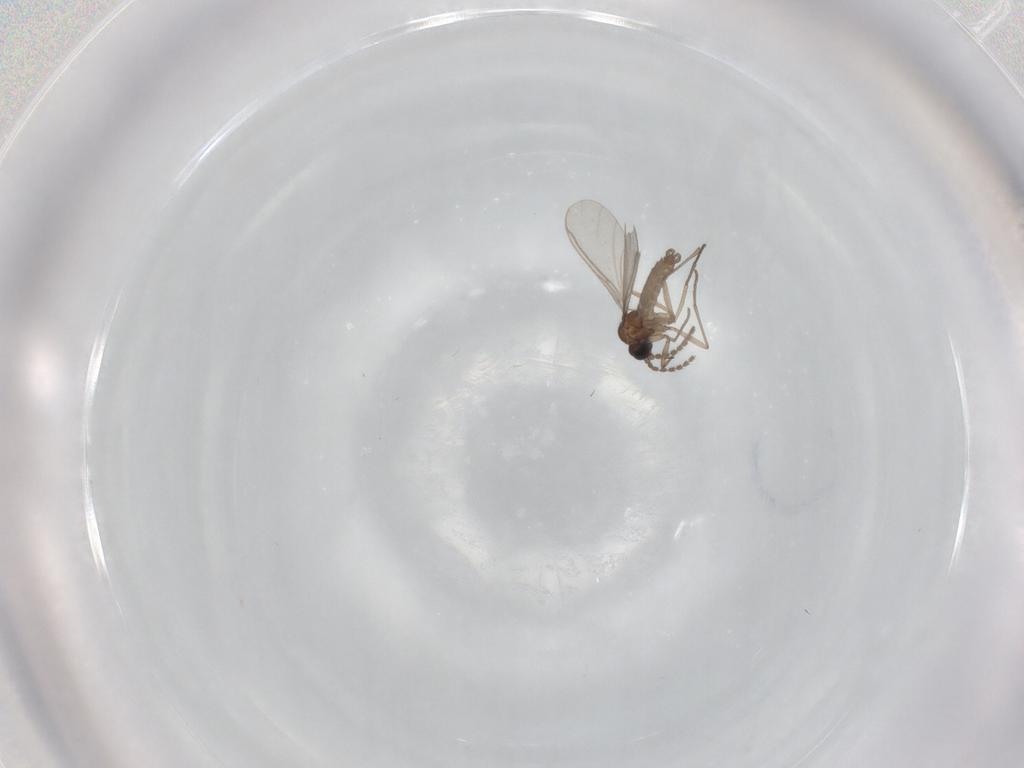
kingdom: Animalia
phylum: Arthropoda
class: Insecta
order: Diptera
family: Sciaridae
